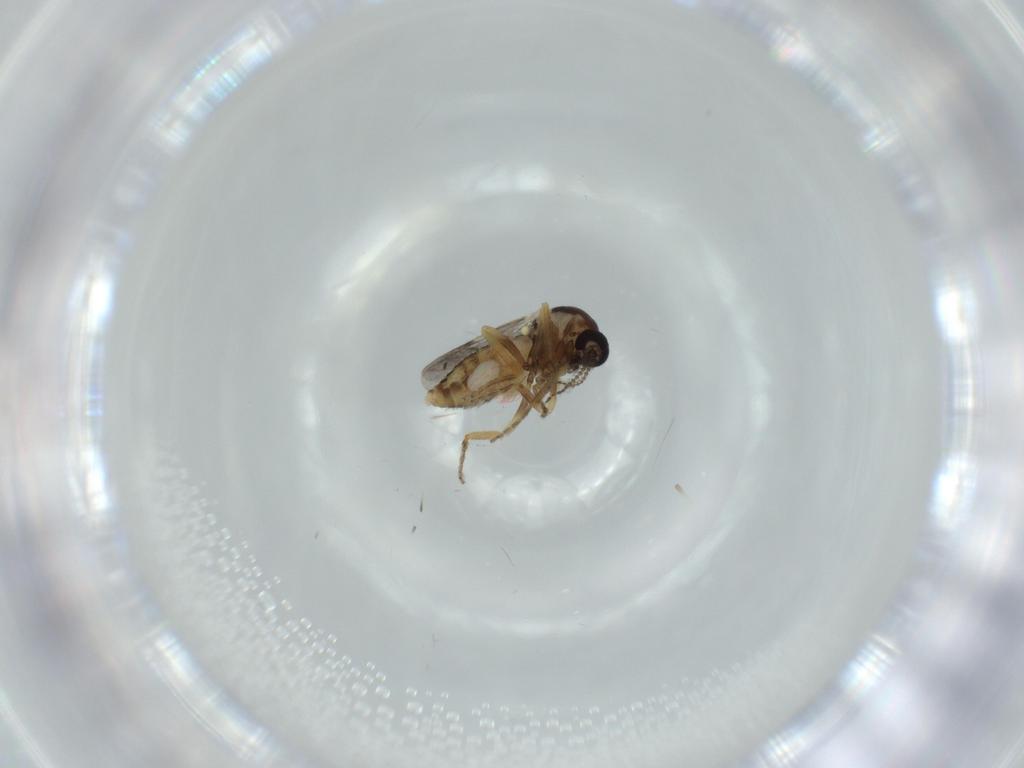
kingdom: Animalia
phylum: Arthropoda
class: Insecta
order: Diptera
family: Ceratopogonidae
